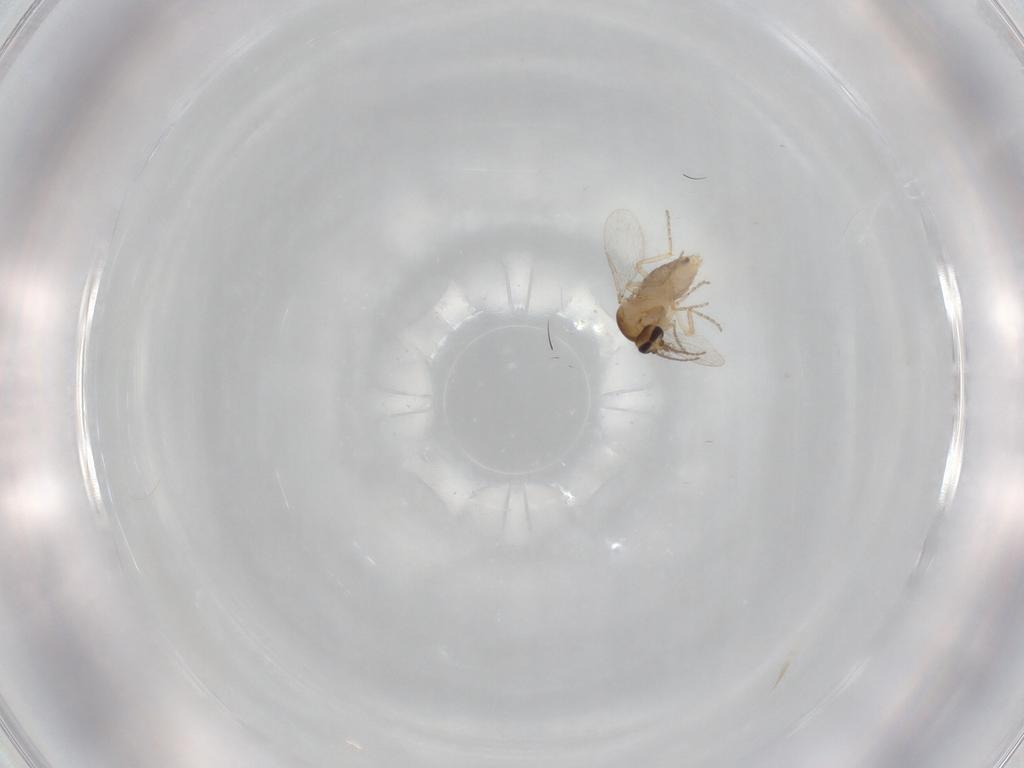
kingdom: Animalia
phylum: Arthropoda
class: Insecta
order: Diptera
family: Ceratopogonidae
